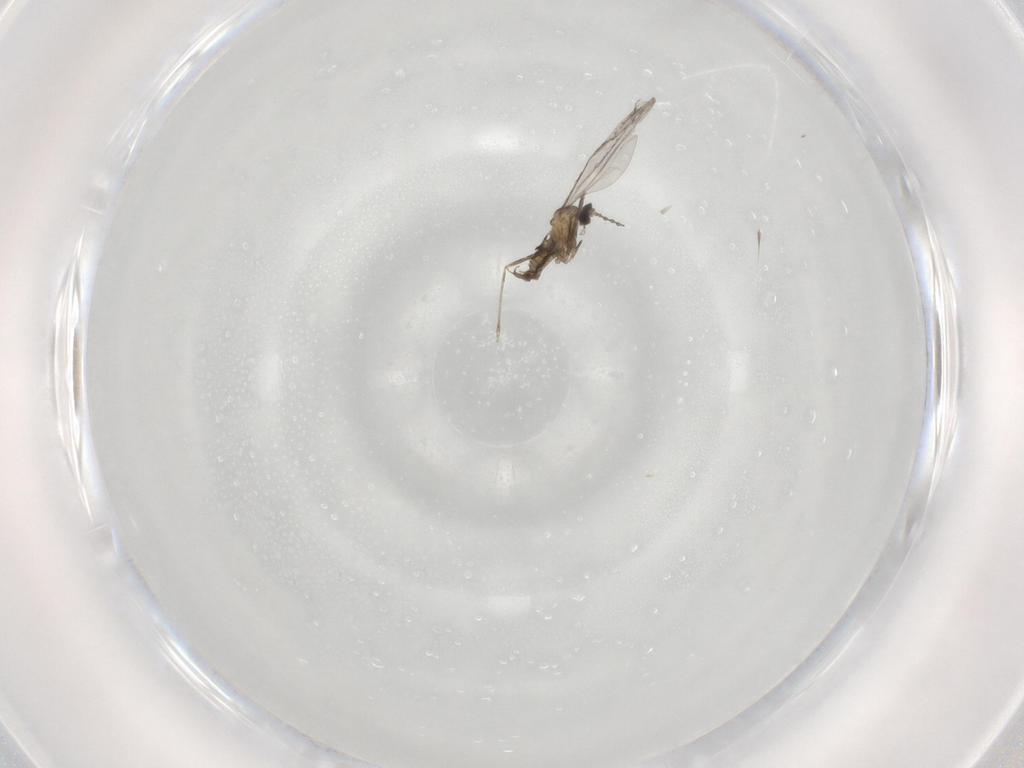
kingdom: Animalia
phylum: Arthropoda
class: Insecta
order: Diptera
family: Cecidomyiidae
